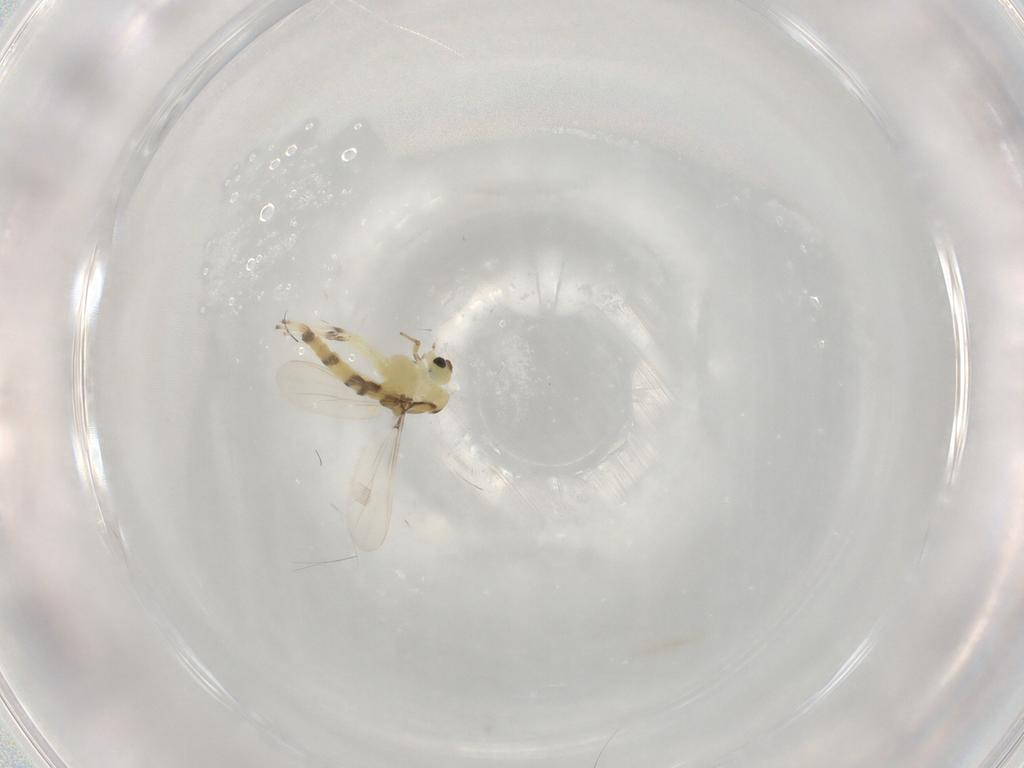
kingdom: Animalia
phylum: Arthropoda
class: Insecta
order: Diptera
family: Chironomidae
